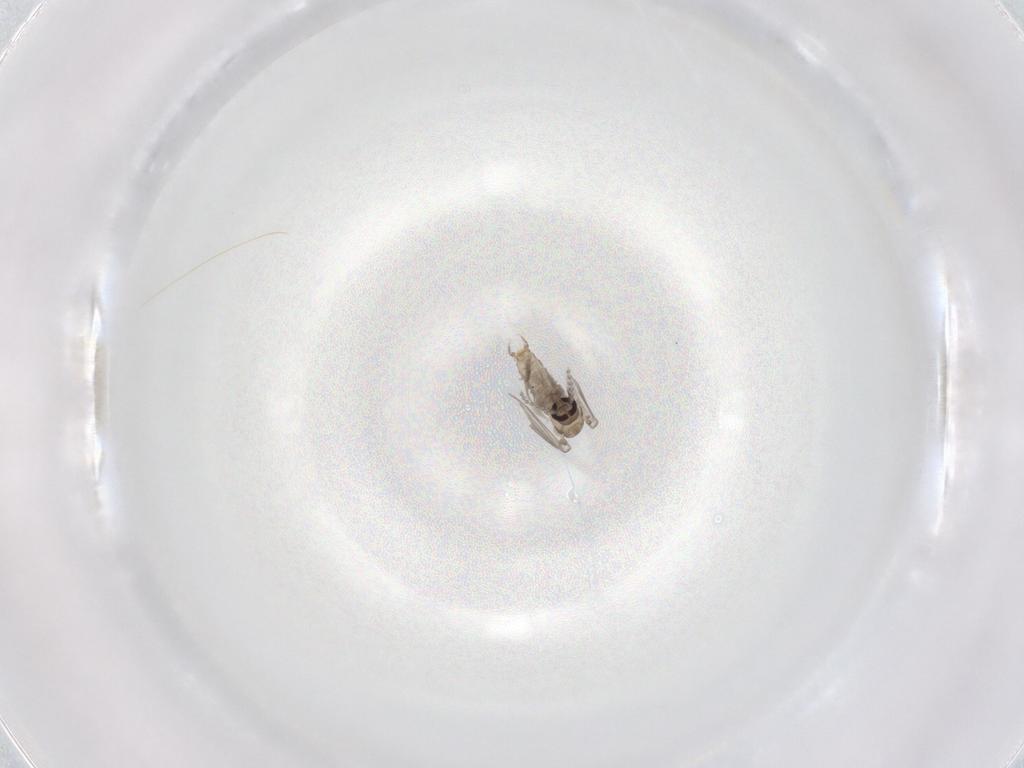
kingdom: Animalia
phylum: Arthropoda
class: Insecta
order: Diptera
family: Psychodidae
